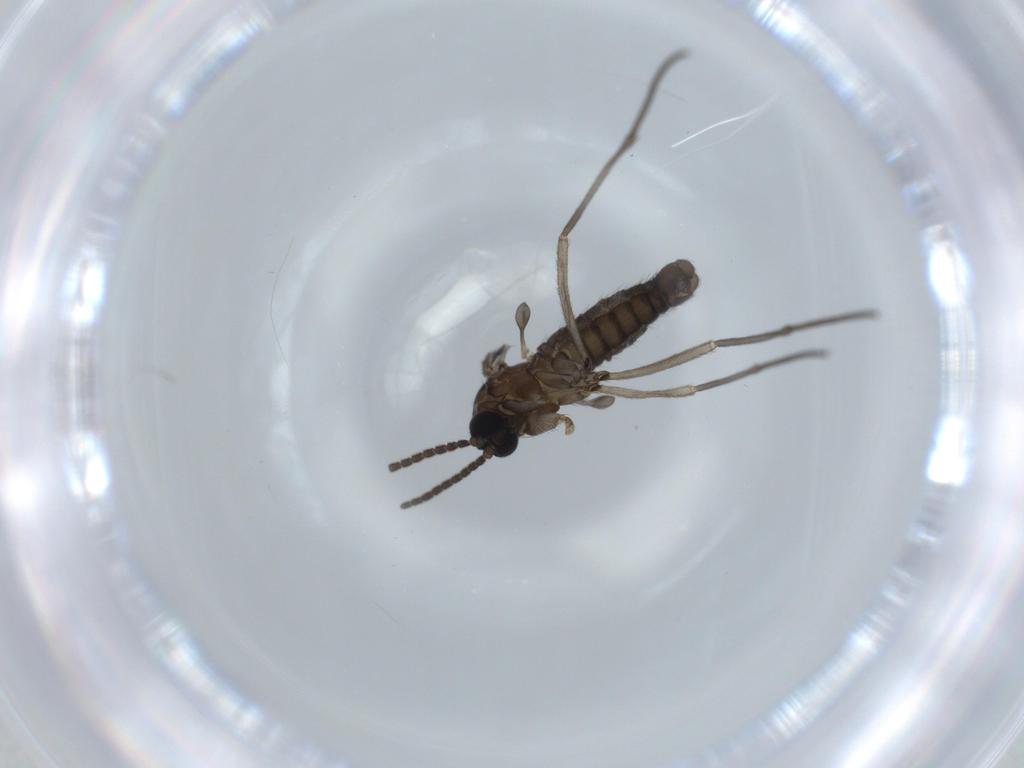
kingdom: Animalia
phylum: Arthropoda
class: Insecta
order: Diptera
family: Sciaridae
